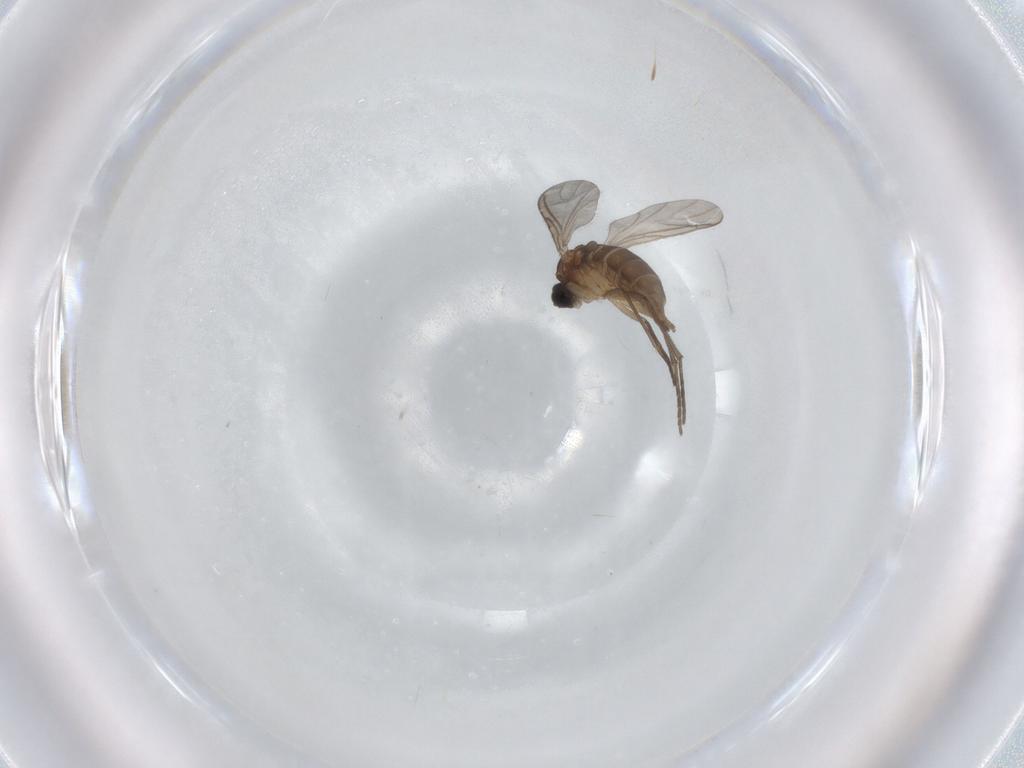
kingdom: Animalia
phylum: Arthropoda
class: Insecta
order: Diptera
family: Sciaridae
